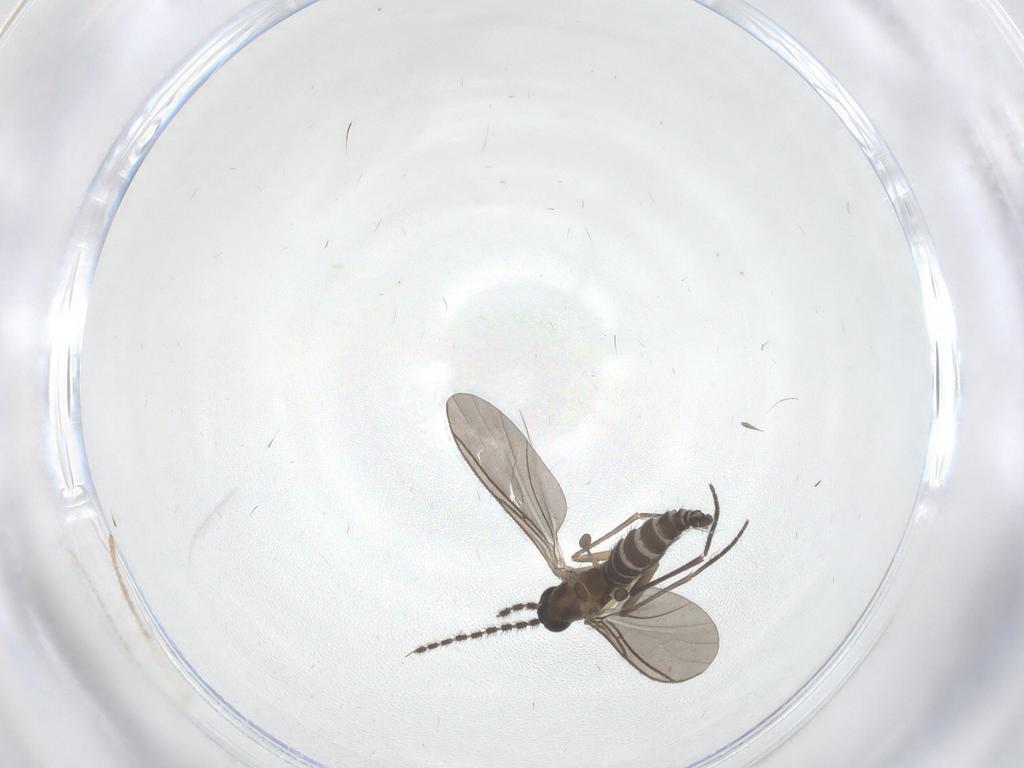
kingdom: Animalia
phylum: Arthropoda
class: Insecta
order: Diptera
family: Sciaridae
